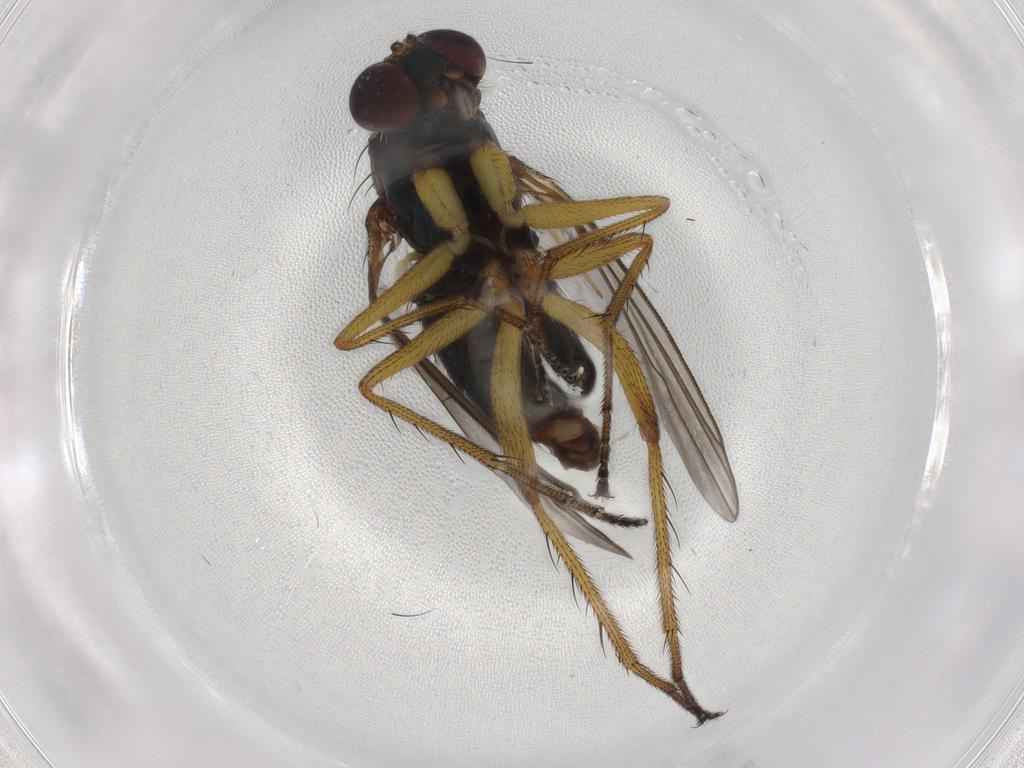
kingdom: Animalia
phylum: Arthropoda
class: Insecta
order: Diptera
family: Dolichopodidae
